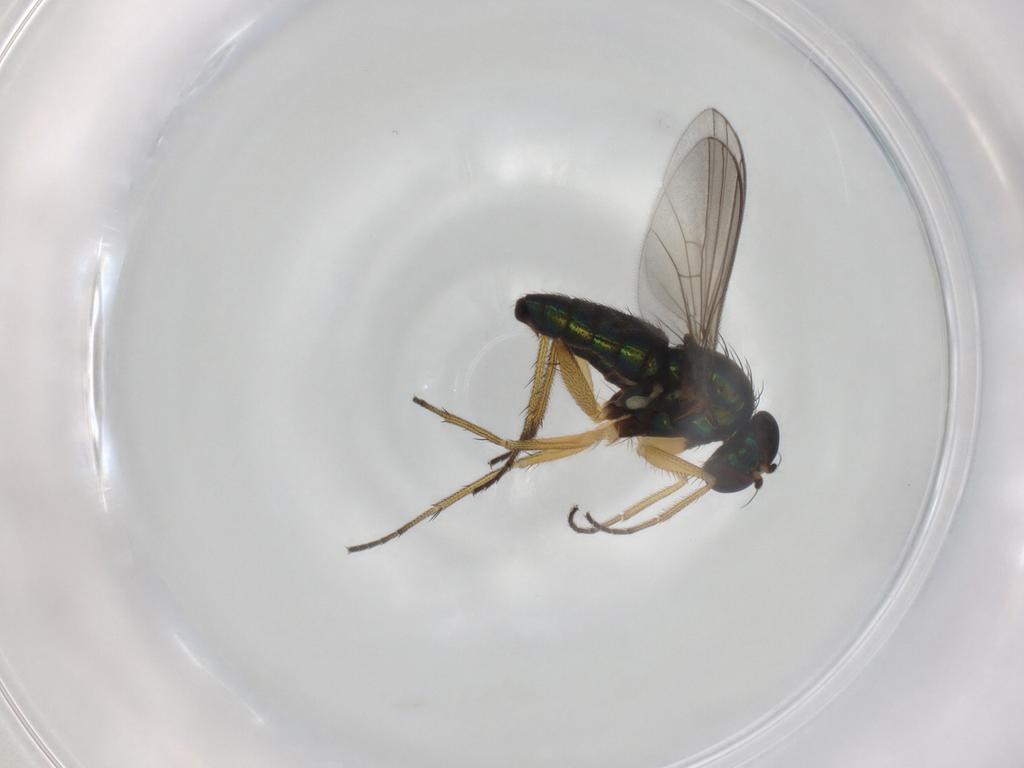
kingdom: Animalia
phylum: Arthropoda
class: Insecta
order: Diptera
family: Dolichopodidae
